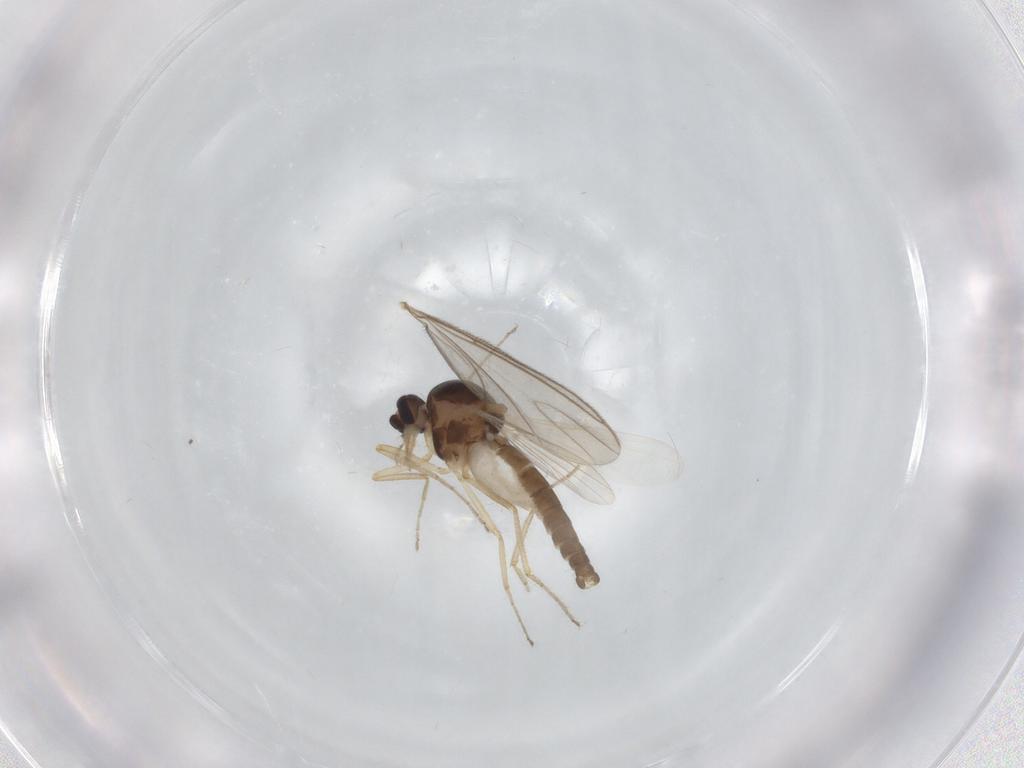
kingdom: Animalia
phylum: Arthropoda
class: Insecta
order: Diptera
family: Ceratopogonidae
